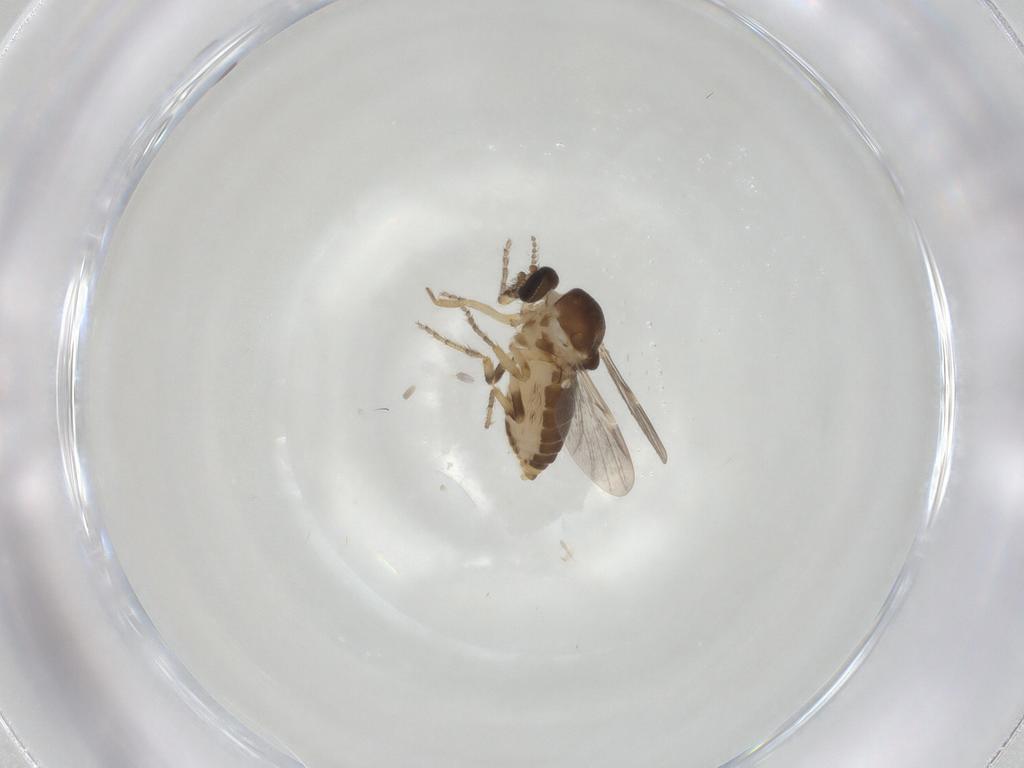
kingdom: Animalia
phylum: Arthropoda
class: Insecta
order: Diptera
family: Ceratopogonidae
